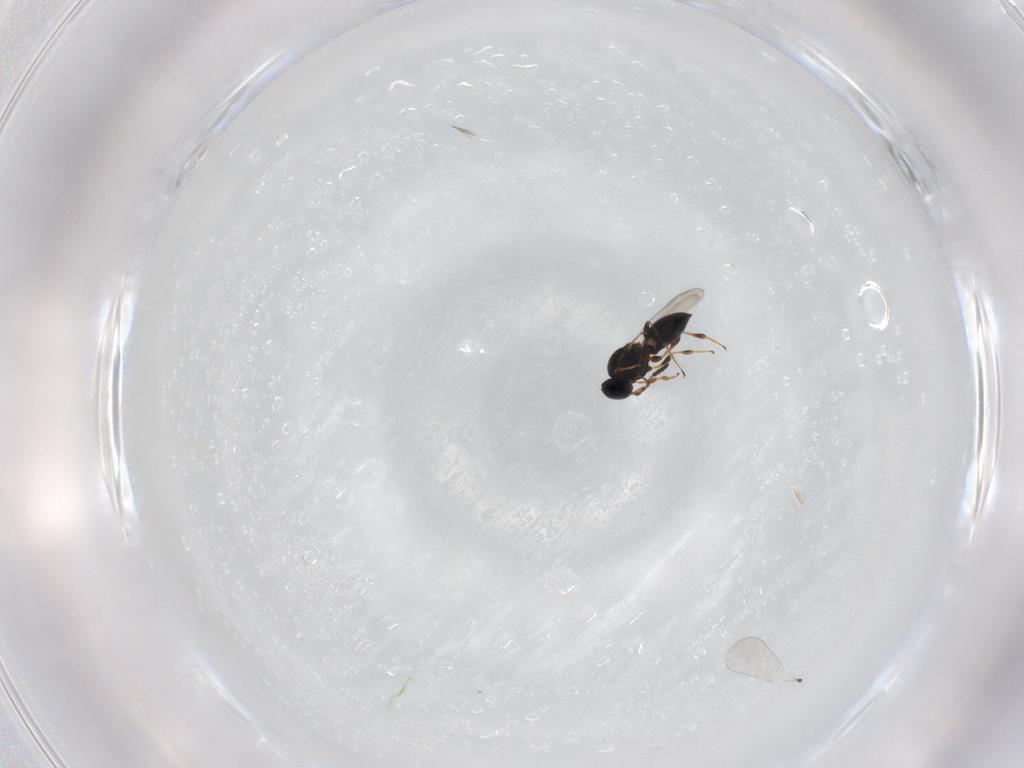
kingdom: Animalia
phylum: Arthropoda
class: Insecta
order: Hymenoptera
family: Platygastridae
